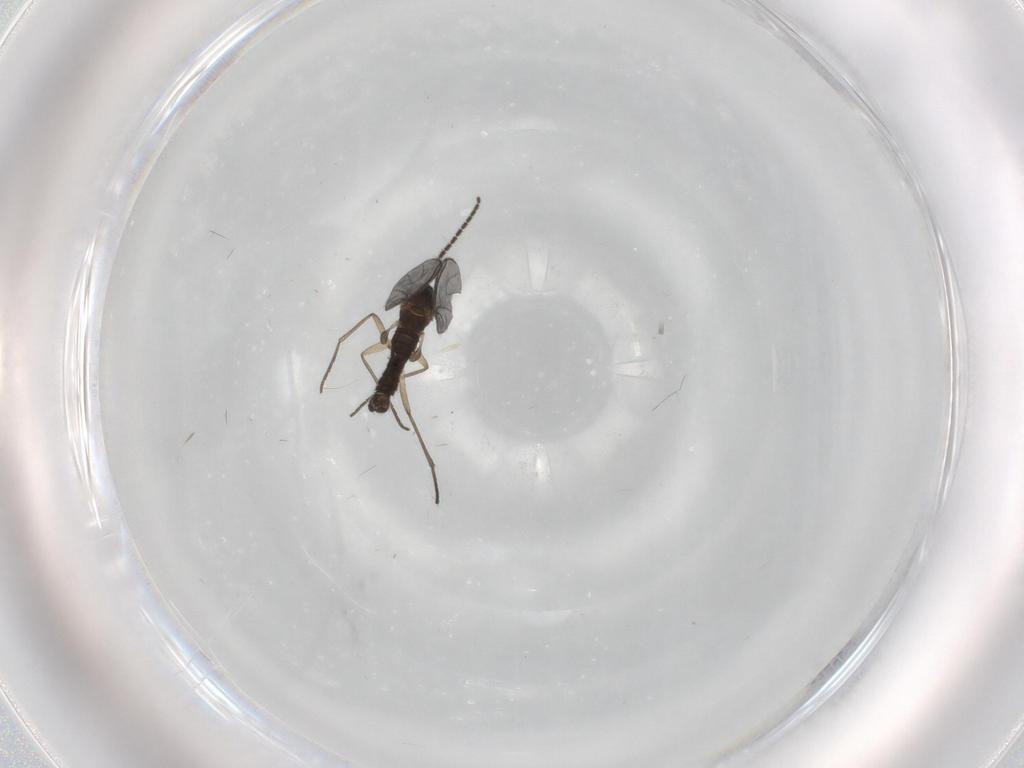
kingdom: Animalia
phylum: Arthropoda
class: Insecta
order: Diptera
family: Sciaridae
